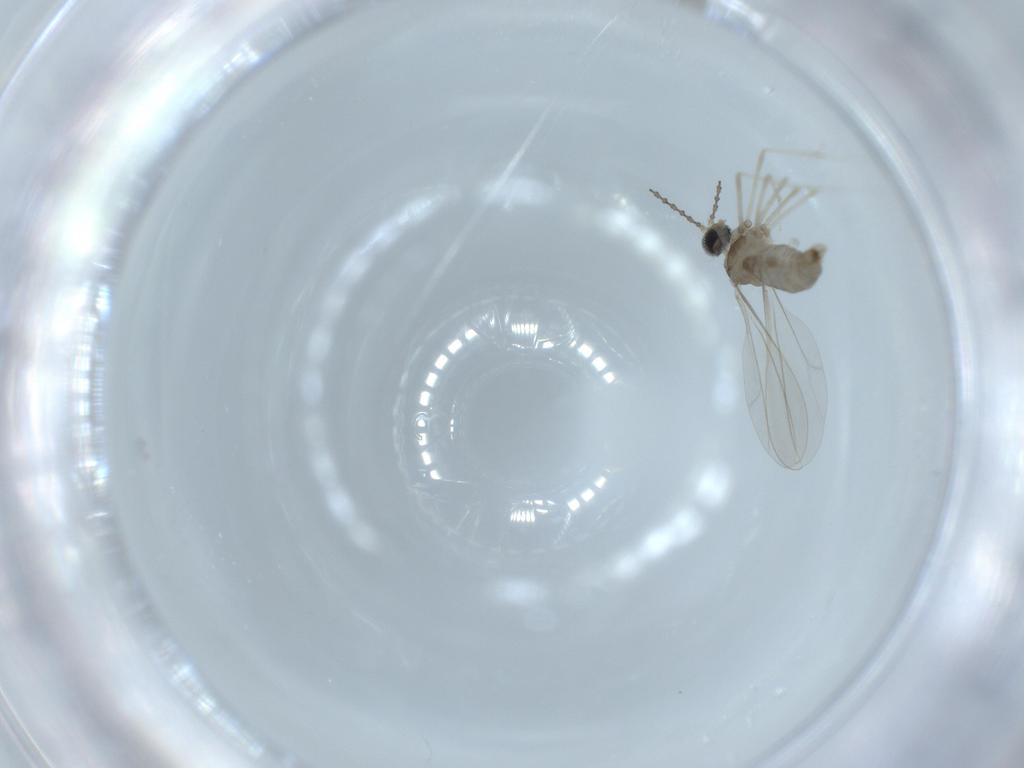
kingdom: Animalia
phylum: Arthropoda
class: Insecta
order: Diptera
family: Cecidomyiidae
